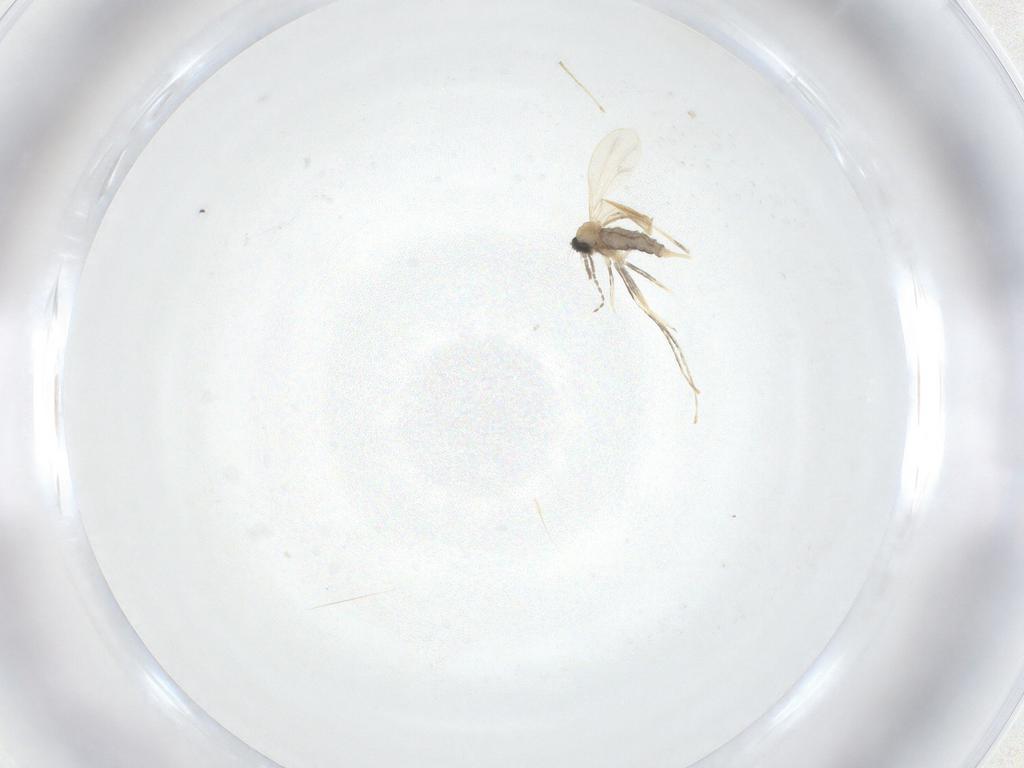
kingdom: Animalia
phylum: Arthropoda
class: Insecta
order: Diptera
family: Cecidomyiidae
